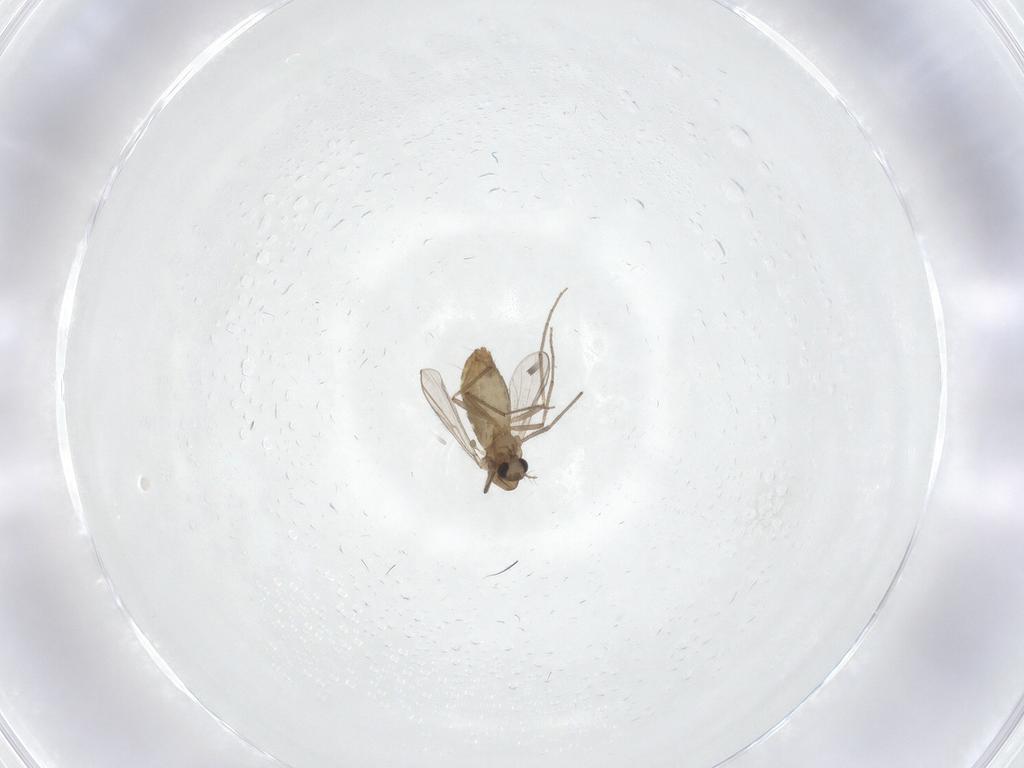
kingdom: Animalia
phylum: Arthropoda
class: Insecta
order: Diptera
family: Chironomidae
